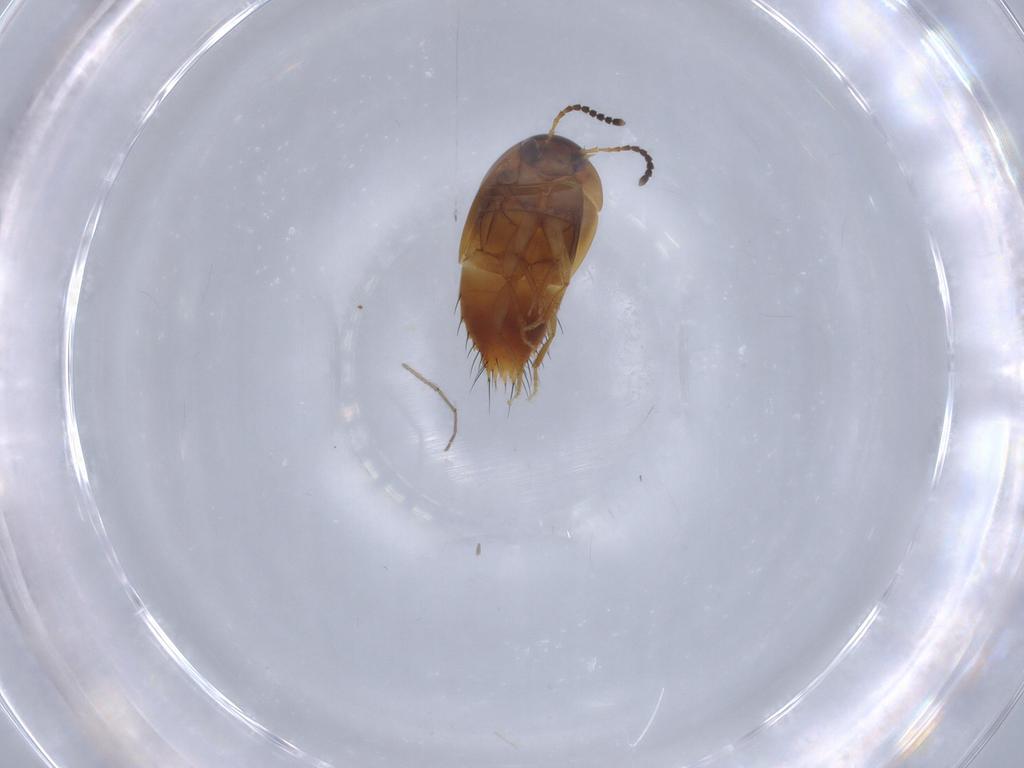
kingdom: Animalia
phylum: Arthropoda
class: Insecta
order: Coleoptera
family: Staphylinidae
